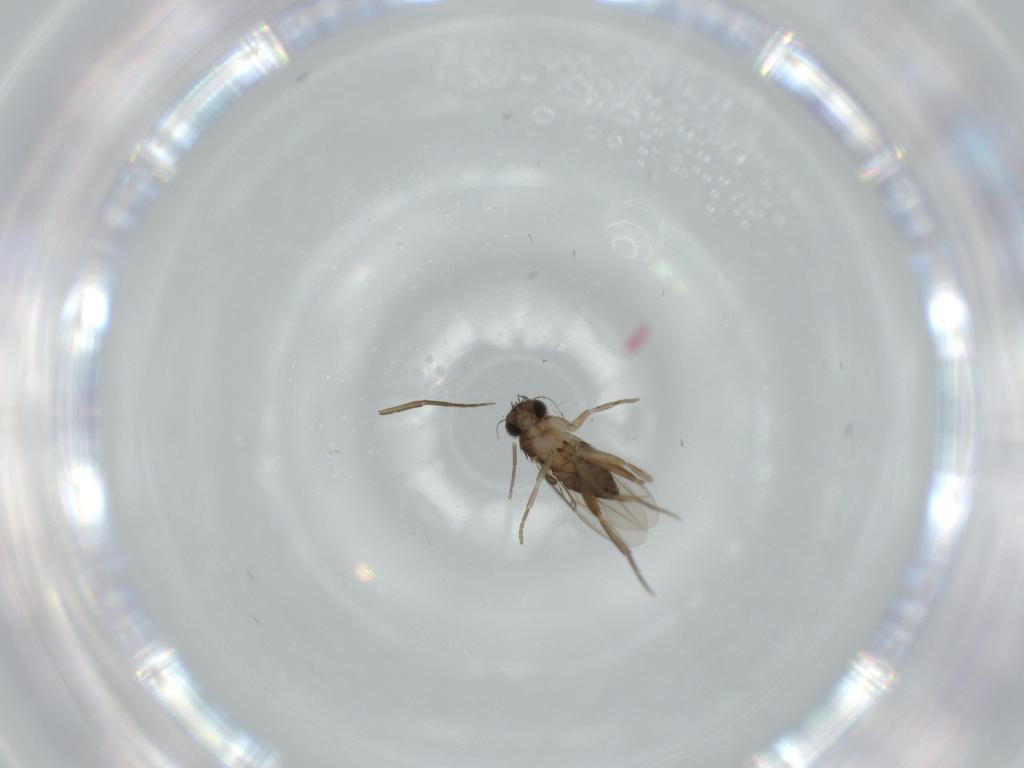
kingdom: Animalia
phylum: Arthropoda
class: Insecta
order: Diptera
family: Phoridae
